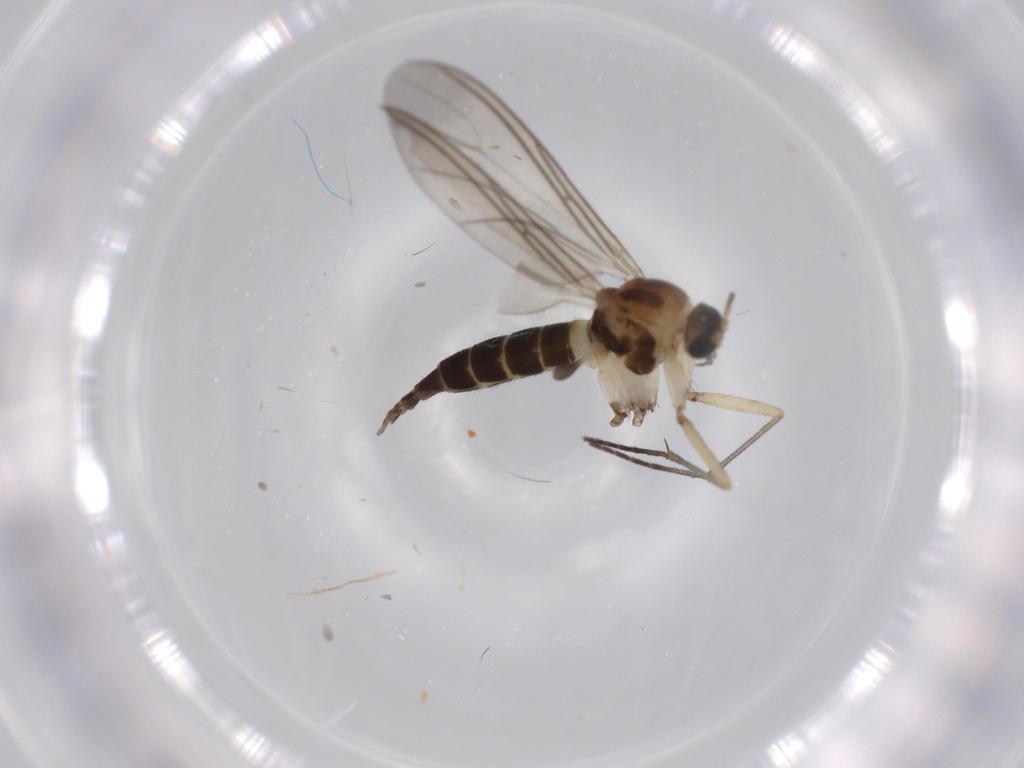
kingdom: Animalia
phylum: Arthropoda
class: Insecta
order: Diptera
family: Sciaridae
